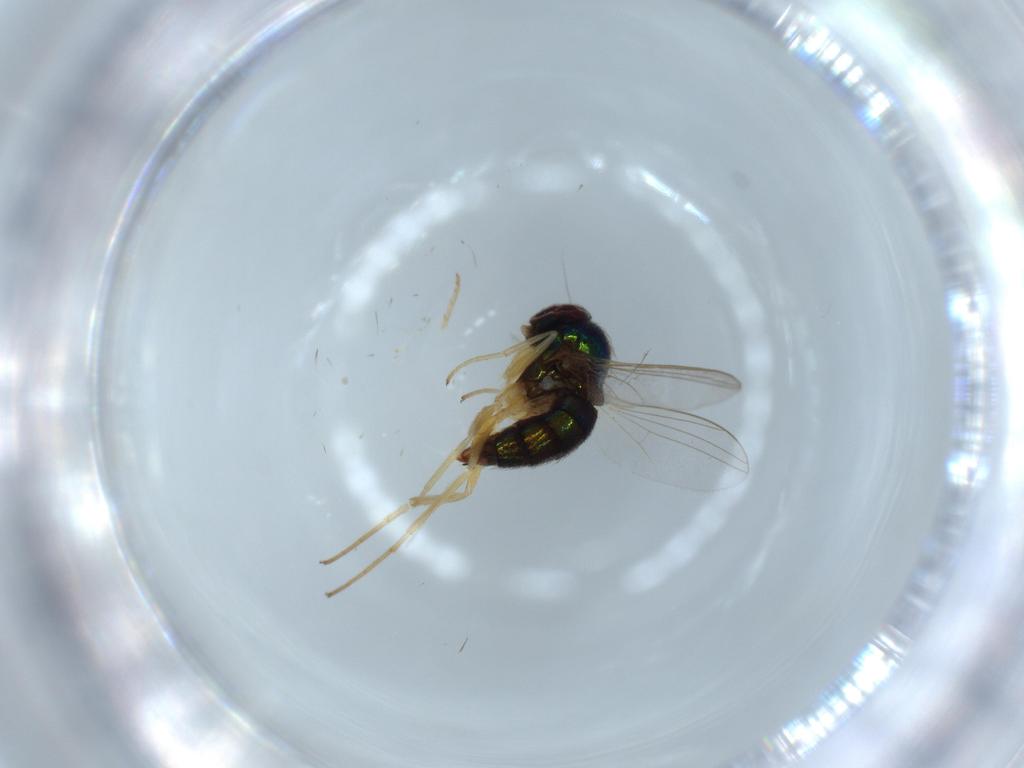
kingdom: Animalia
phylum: Arthropoda
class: Insecta
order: Diptera
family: Dolichopodidae
